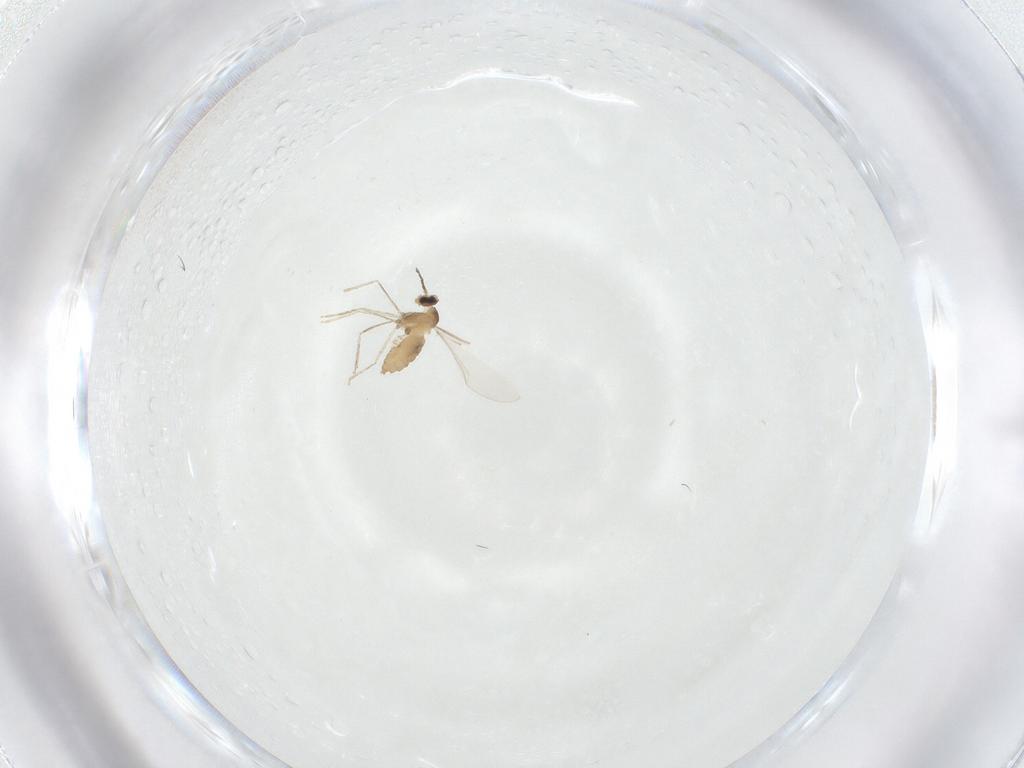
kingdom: Animalia
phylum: Arthropoda
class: Insecta
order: Diptera
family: Cecidomyiidae
